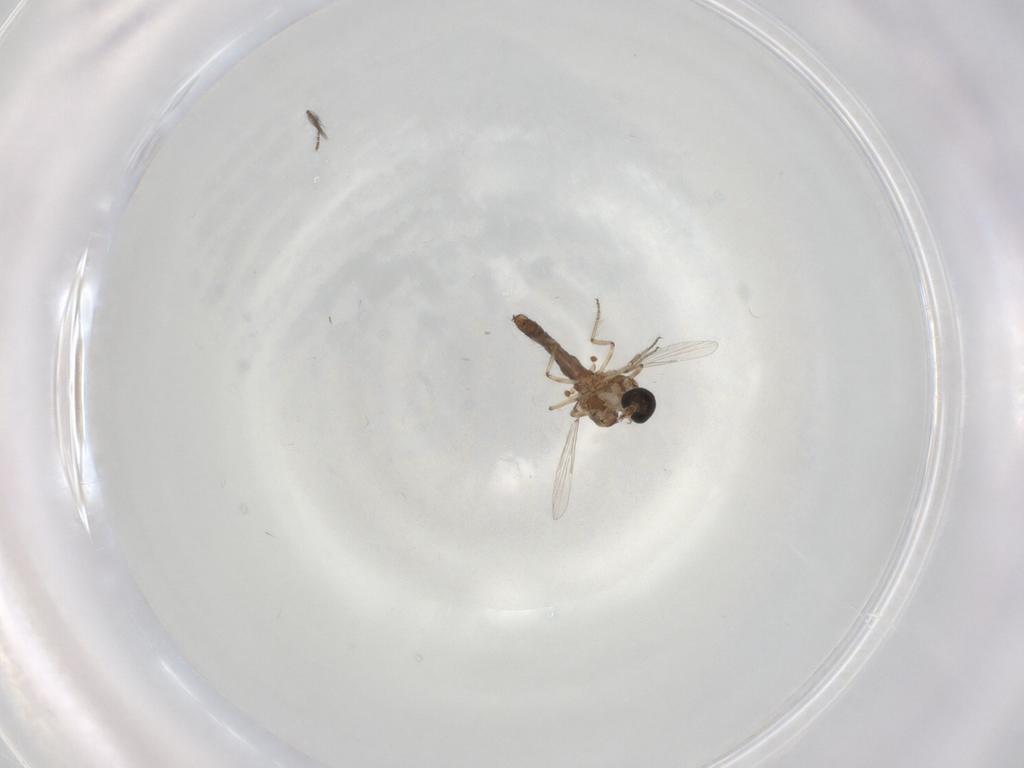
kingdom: Animalia
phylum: Arthropoda
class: Insecta
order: Diptera
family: Ceratopogonidae
